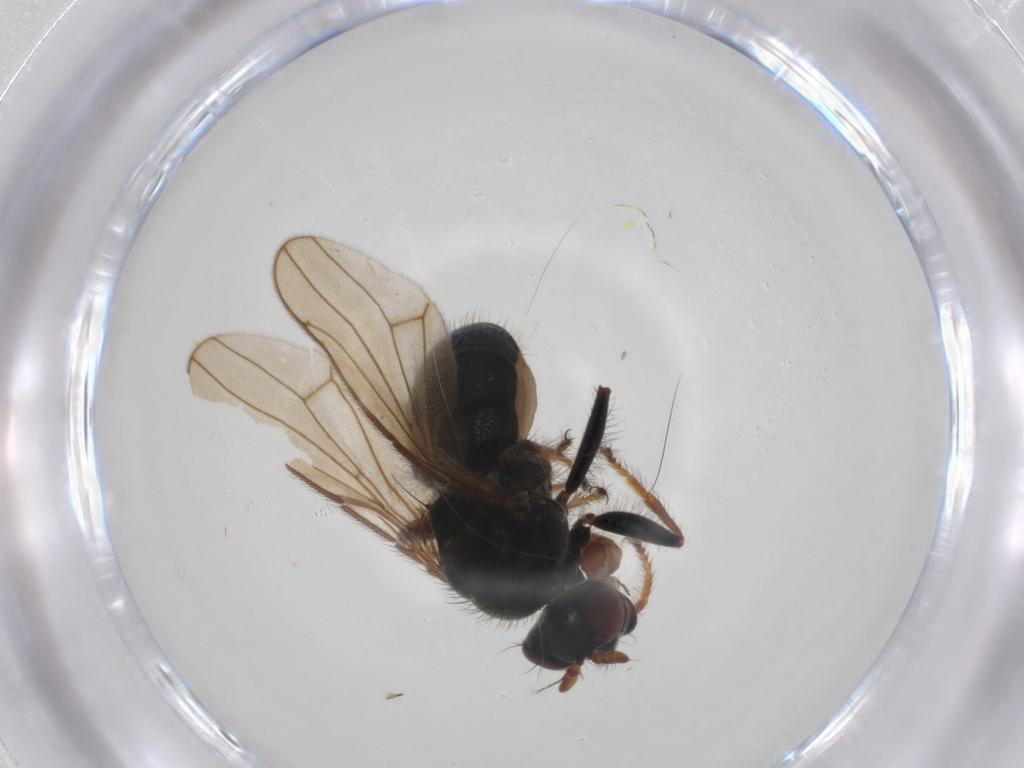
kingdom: Animalia
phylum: Arthropoda
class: Insecta
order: Diptera
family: Ephydridae
